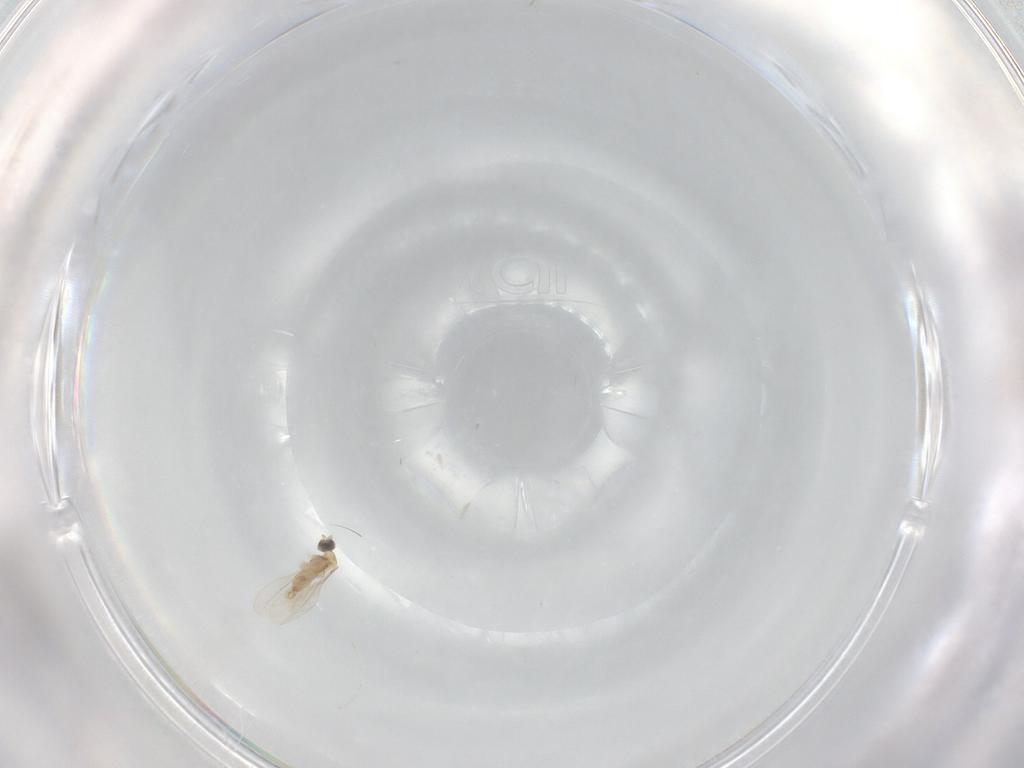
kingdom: Animalia
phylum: Arthropoda
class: Insecta
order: Diptera
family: Cecidomyiidae
